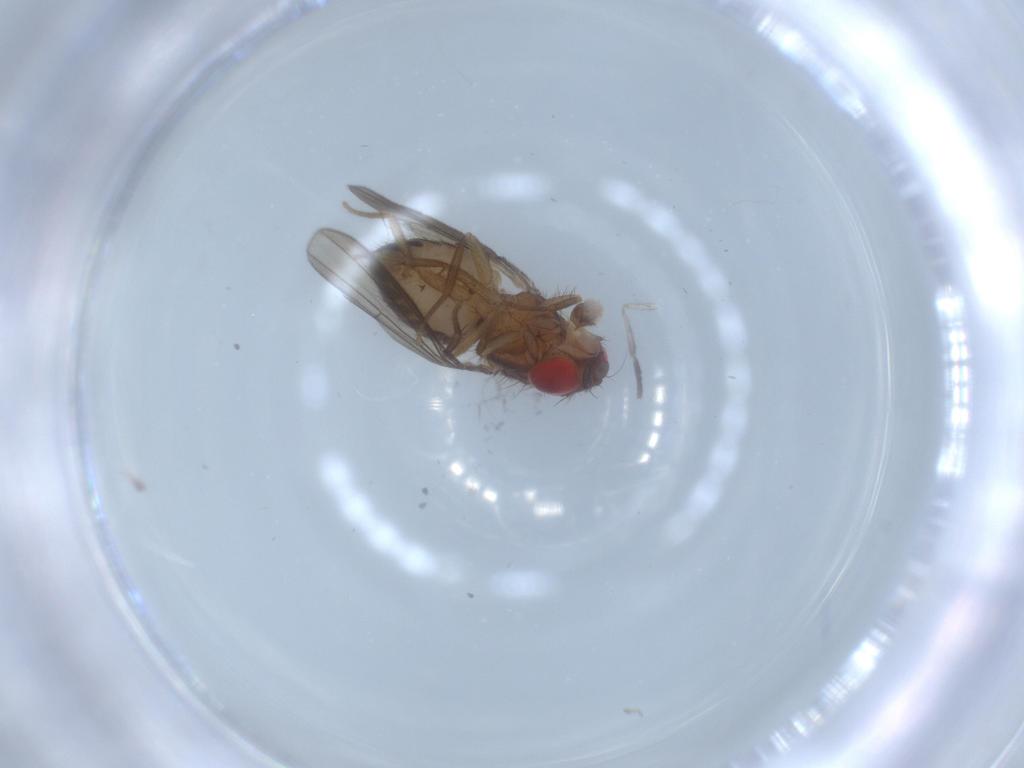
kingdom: Animalia
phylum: Arthropoda
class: Insecta
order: Diptera
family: Drosophilidae
